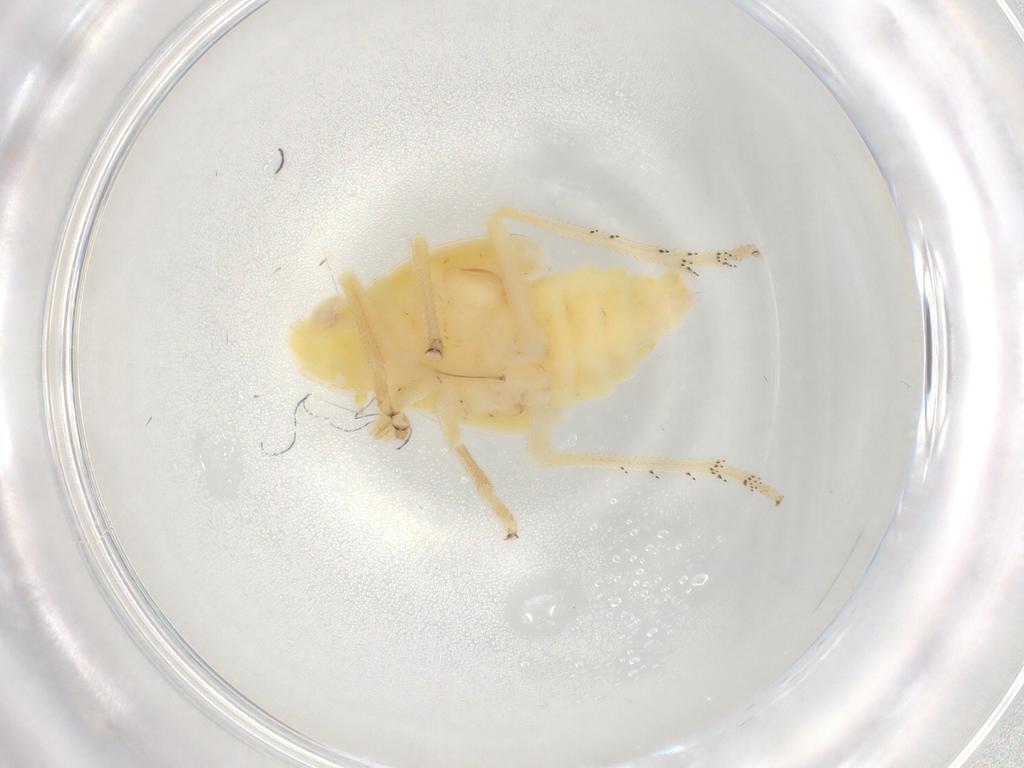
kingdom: Animalia
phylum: Arthropoda
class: Insecta
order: Hemiptera
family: Tropiduchidae
